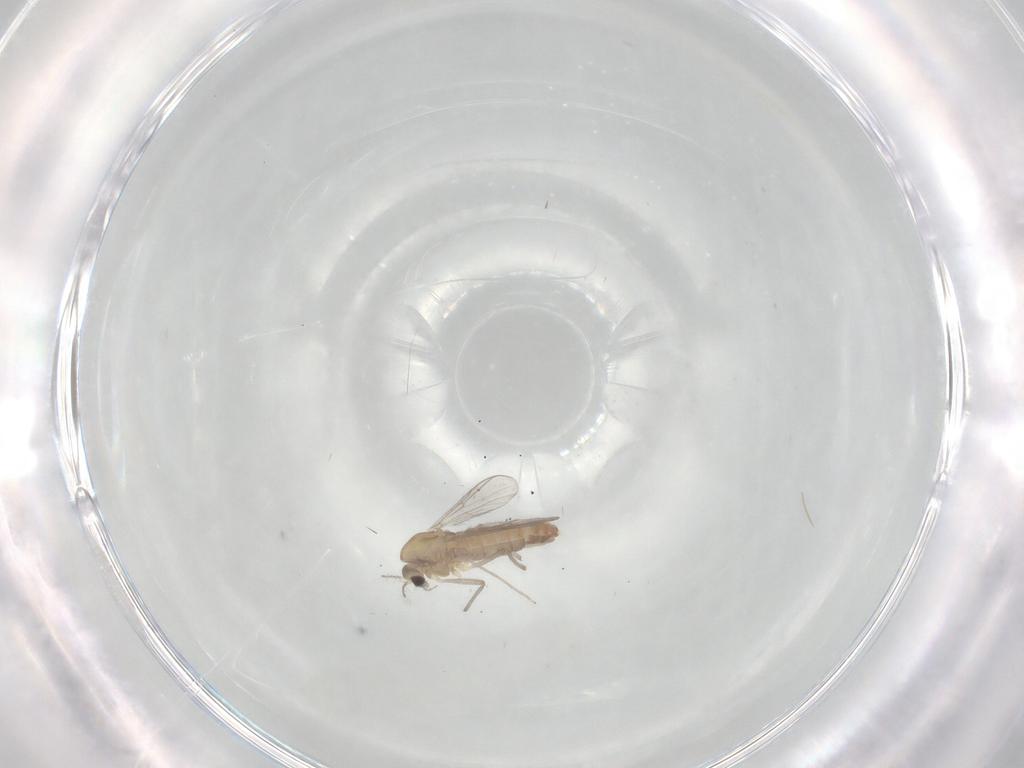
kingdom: Animalia
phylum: Arthropoda
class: Insecta
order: Diptera
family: Cecidomyiidae
